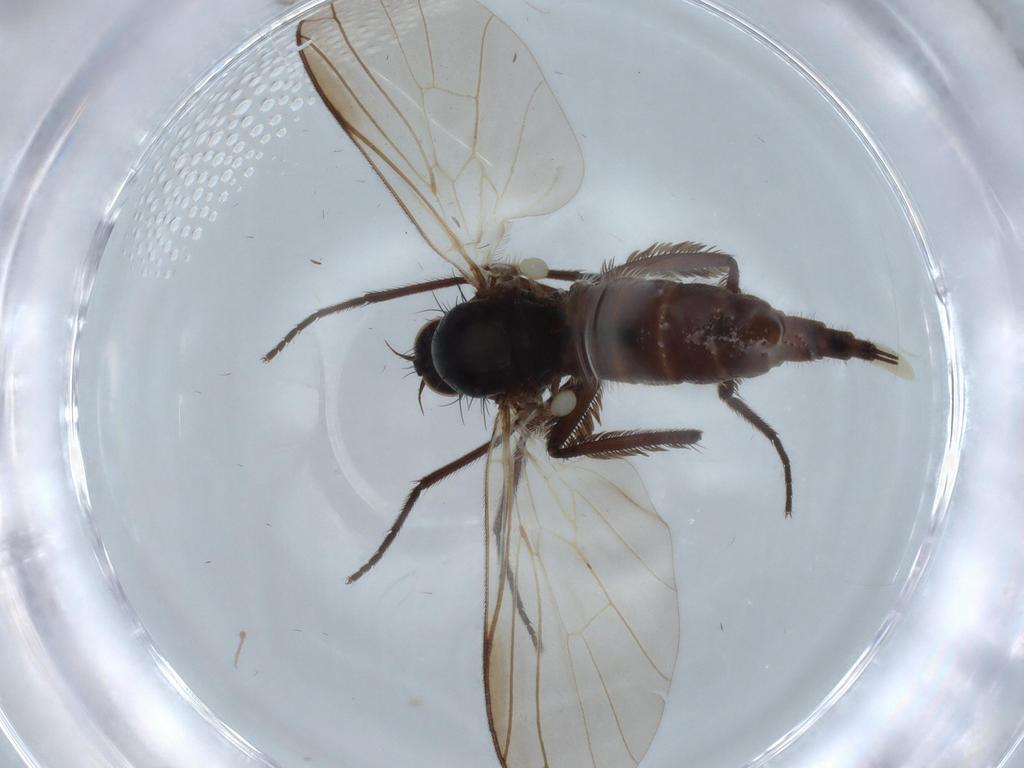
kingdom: Animalia
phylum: Arthropoda
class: Insecta
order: Diptera
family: Empididae
